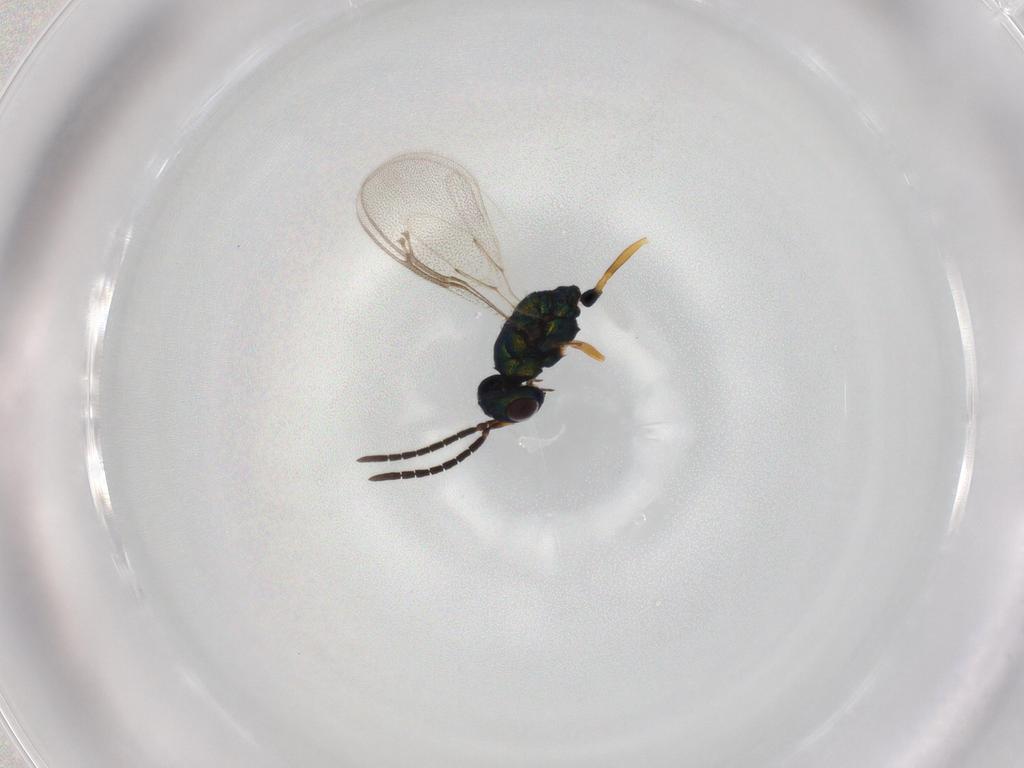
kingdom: Animalia
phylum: Arthropoda
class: Insecta
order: Hymenoptera
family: Pteromalidae
